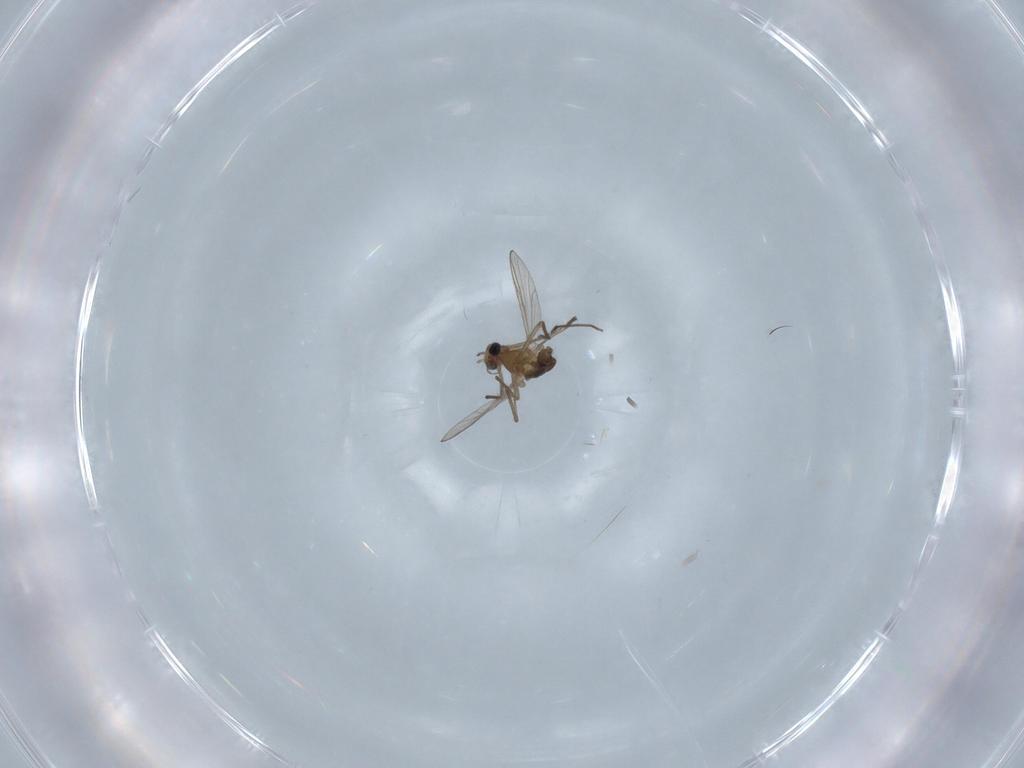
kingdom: Animalia
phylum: Arthropoda
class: Insecta
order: Diptera
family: Chironomidae
